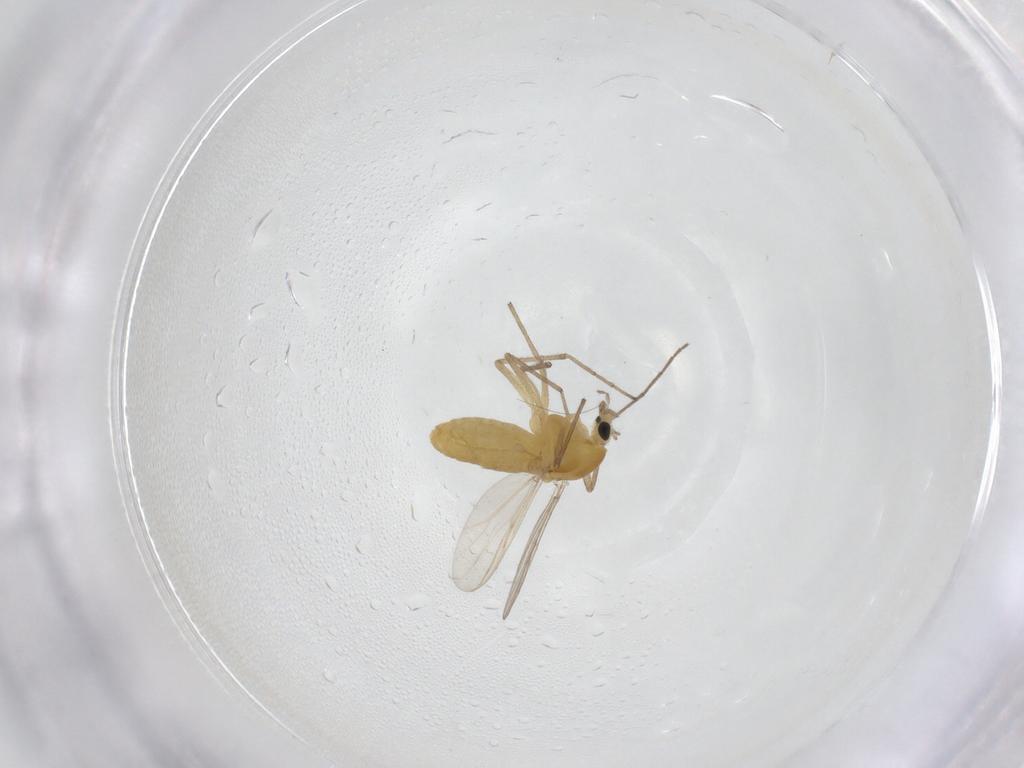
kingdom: Animalia
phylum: Arthropoda
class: Insecta
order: Diptera
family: Chironomidae
